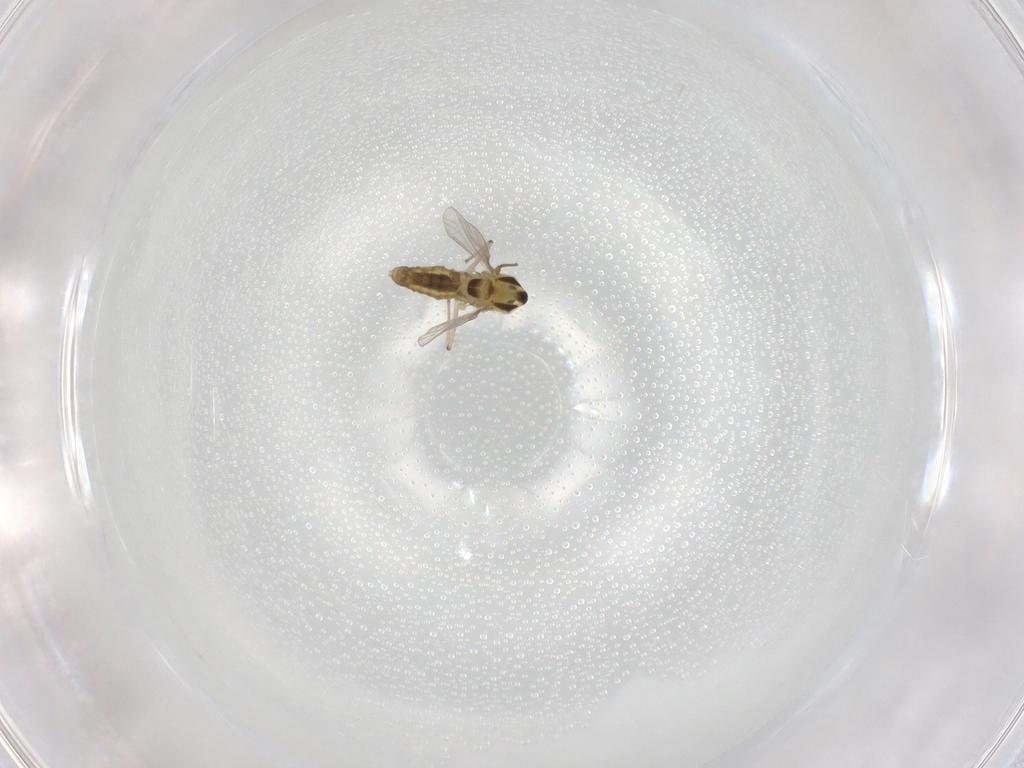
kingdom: Animalia
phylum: Arthropoda
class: Insecta
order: Diptera
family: Chironomidae
